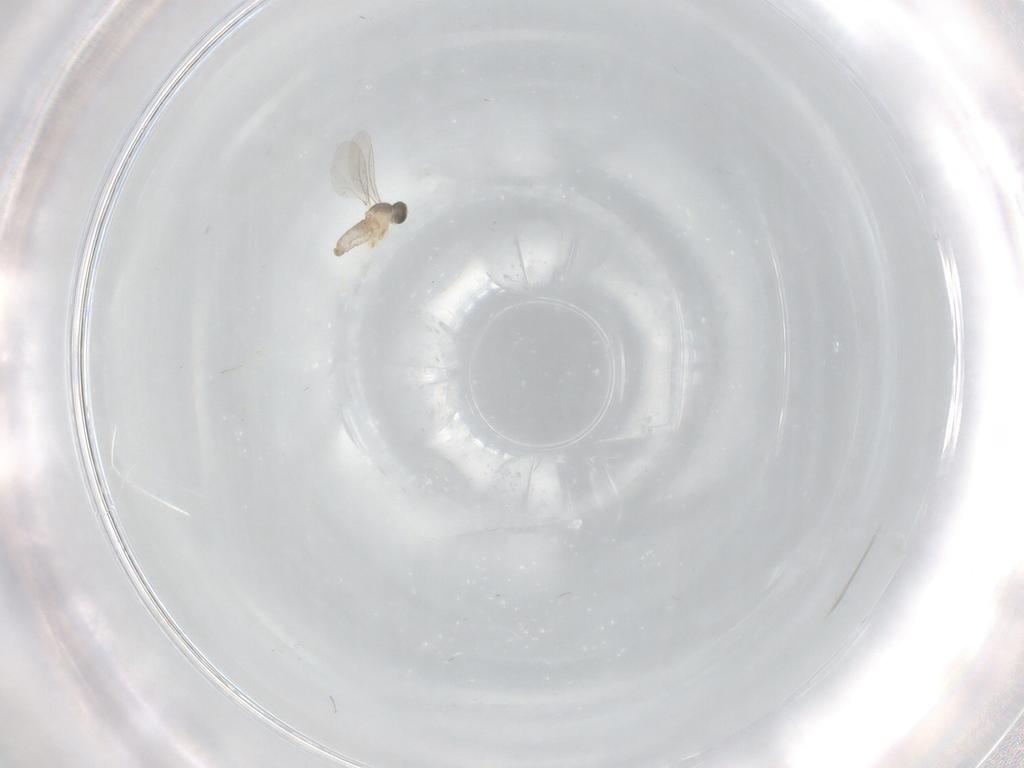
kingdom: Animalia
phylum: Arthropoda
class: Insecta
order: Diptera
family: Cecidomyiidae
